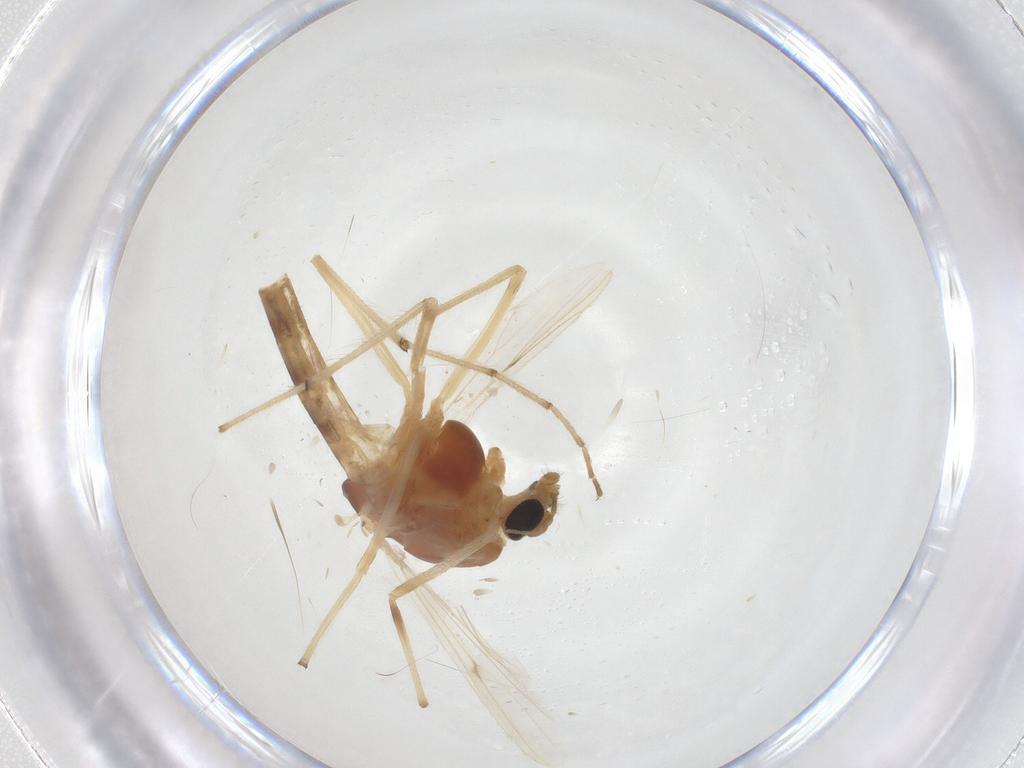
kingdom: Animalia
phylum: Arthropoda
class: Insecta
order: Diptera
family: Chironomidae
